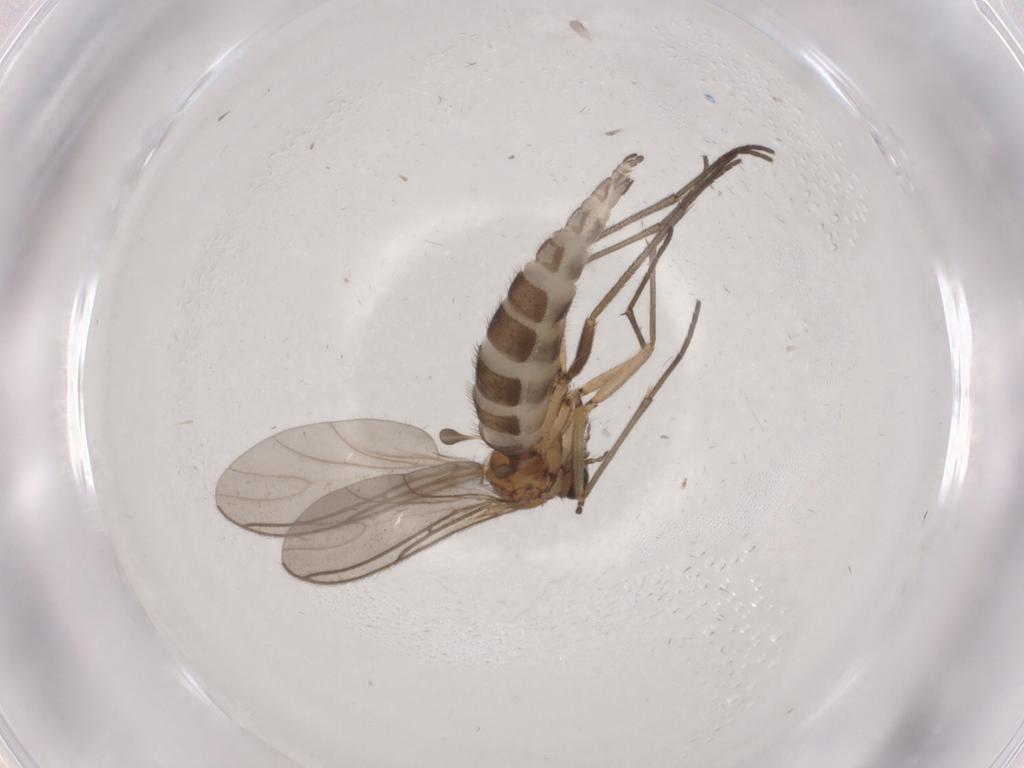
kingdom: Animalia
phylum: Arthropoda
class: Insecta
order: Diptera
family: Sciaridae
